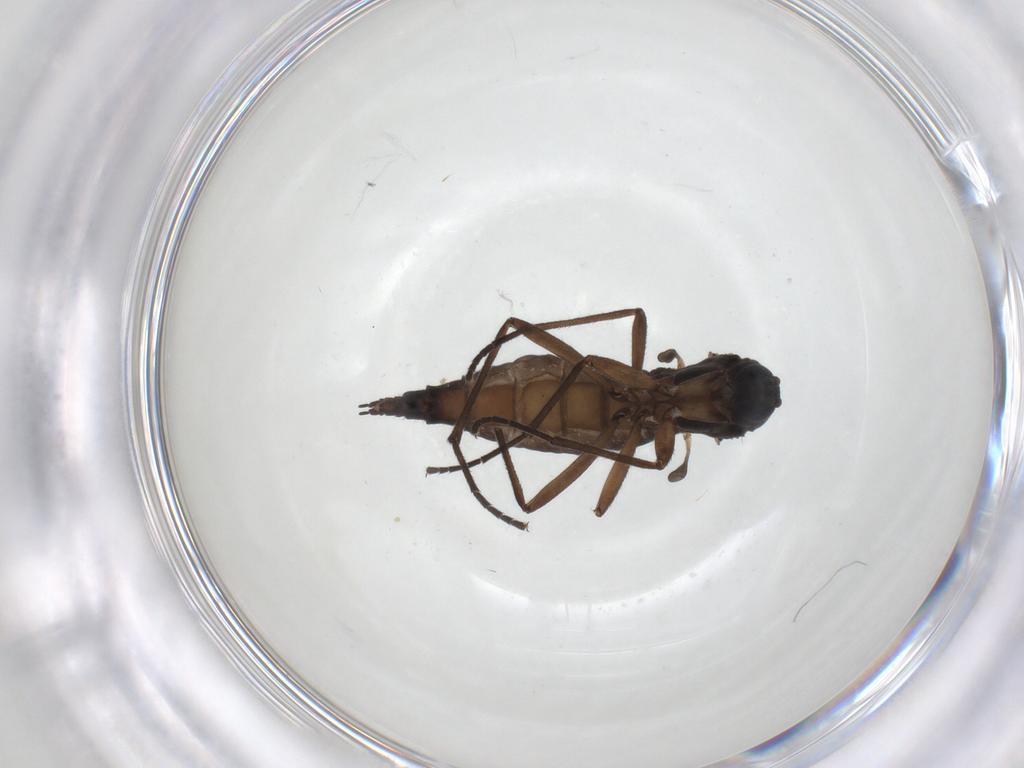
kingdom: Animalia
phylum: Arthropoda
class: Insecta
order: Diptera
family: Sciaridae
